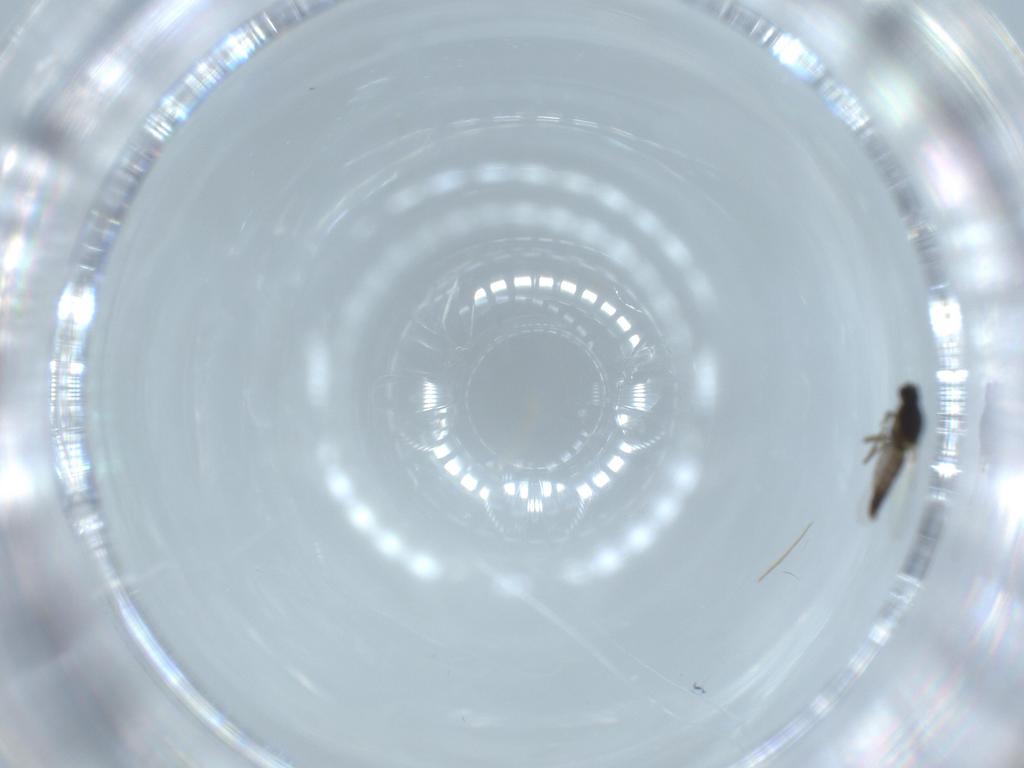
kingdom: Animalia
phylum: Arthropoda
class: Insecta
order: Diptera
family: Ceratopogonidae
